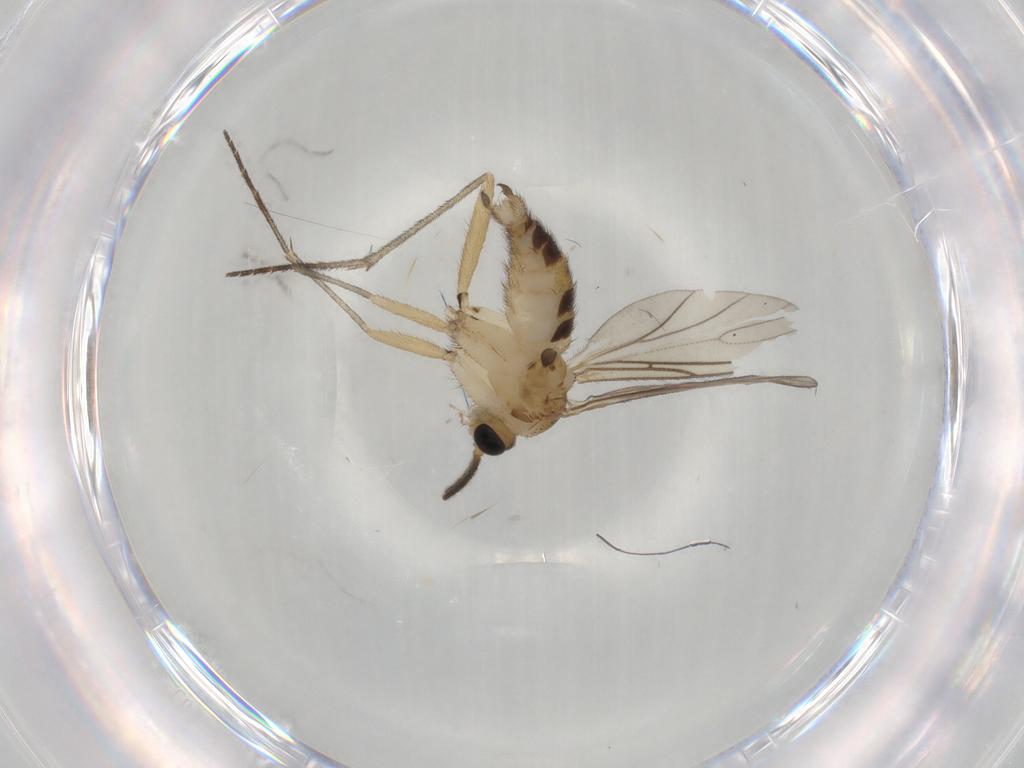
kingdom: Animalia
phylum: Arthropoda
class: Insecta
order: Diptera
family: Sciaridae
